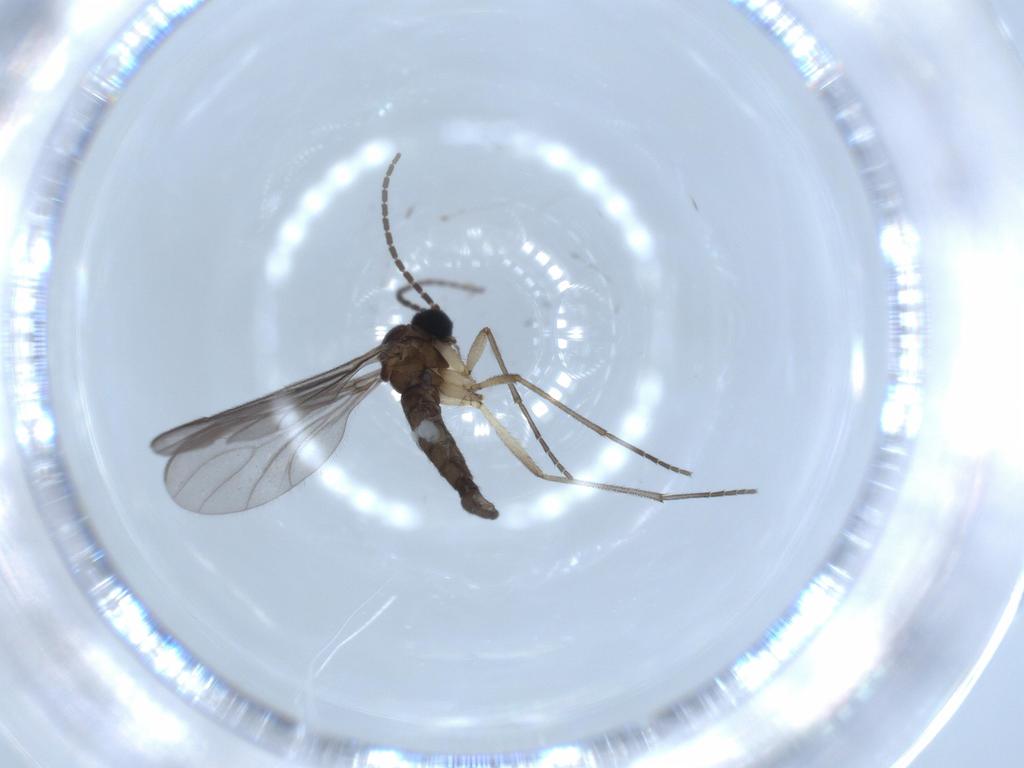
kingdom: Animalia
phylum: Arthropoda
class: Insecta
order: Diptera
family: Sciaridae
